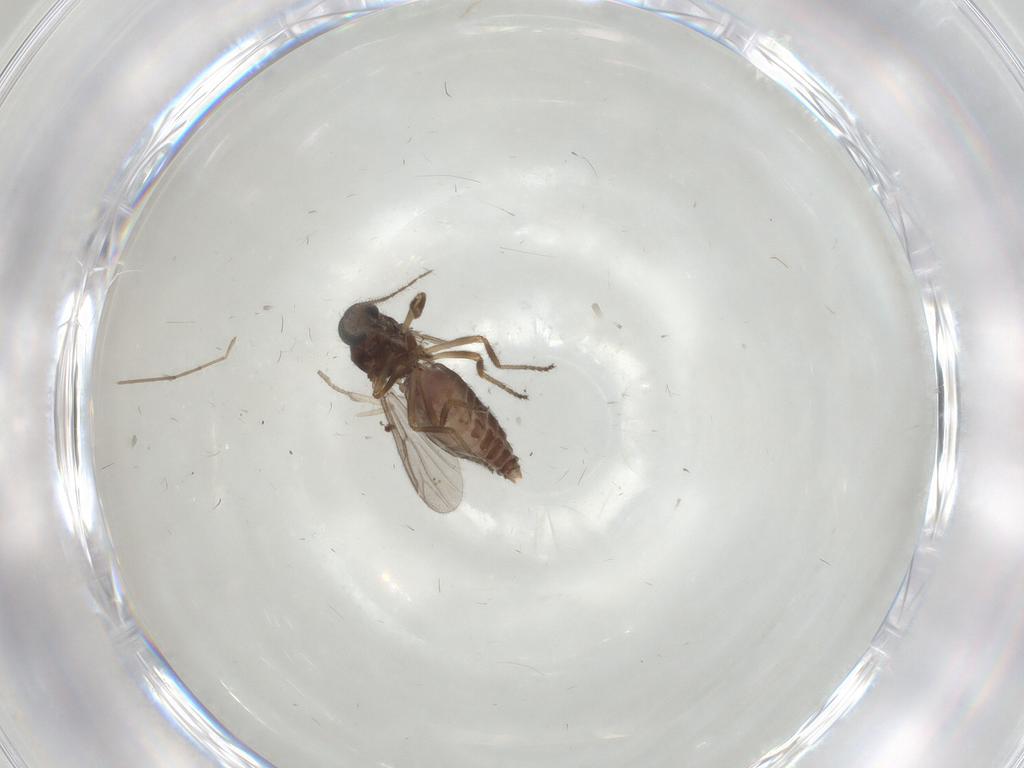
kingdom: Animalia
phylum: Arthropoda
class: Insecta
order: Diptera
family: Ceratopogonidae
